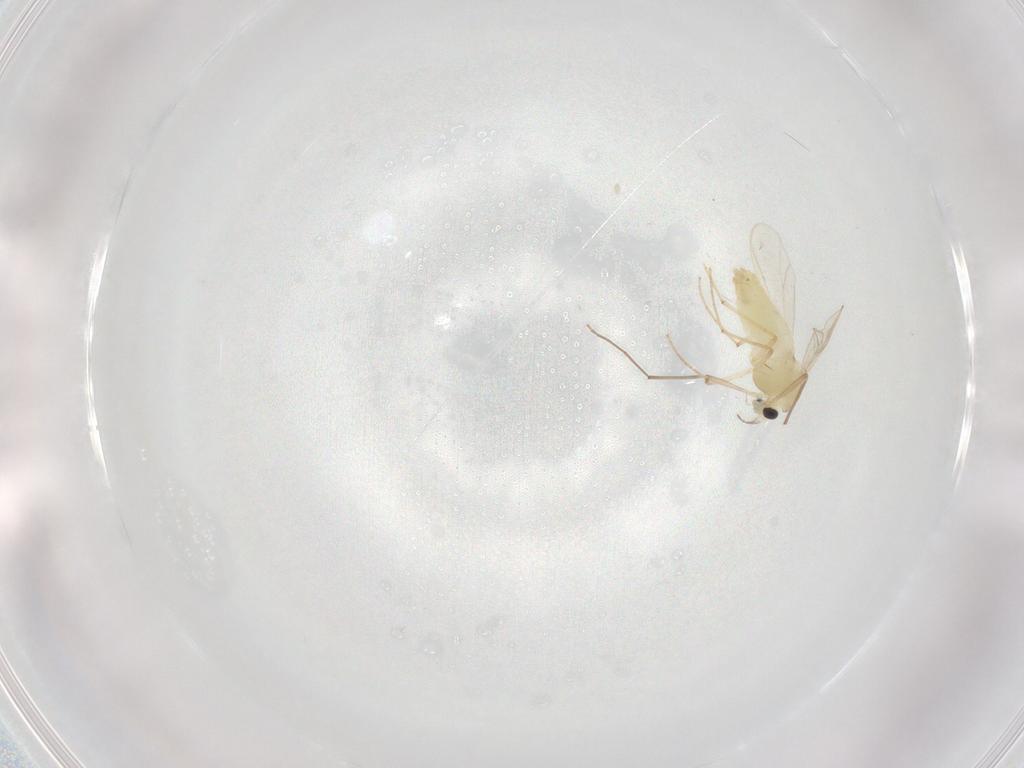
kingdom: Animalia
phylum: Arthropoda
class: Insecta
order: Diptera
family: Chironomidae
